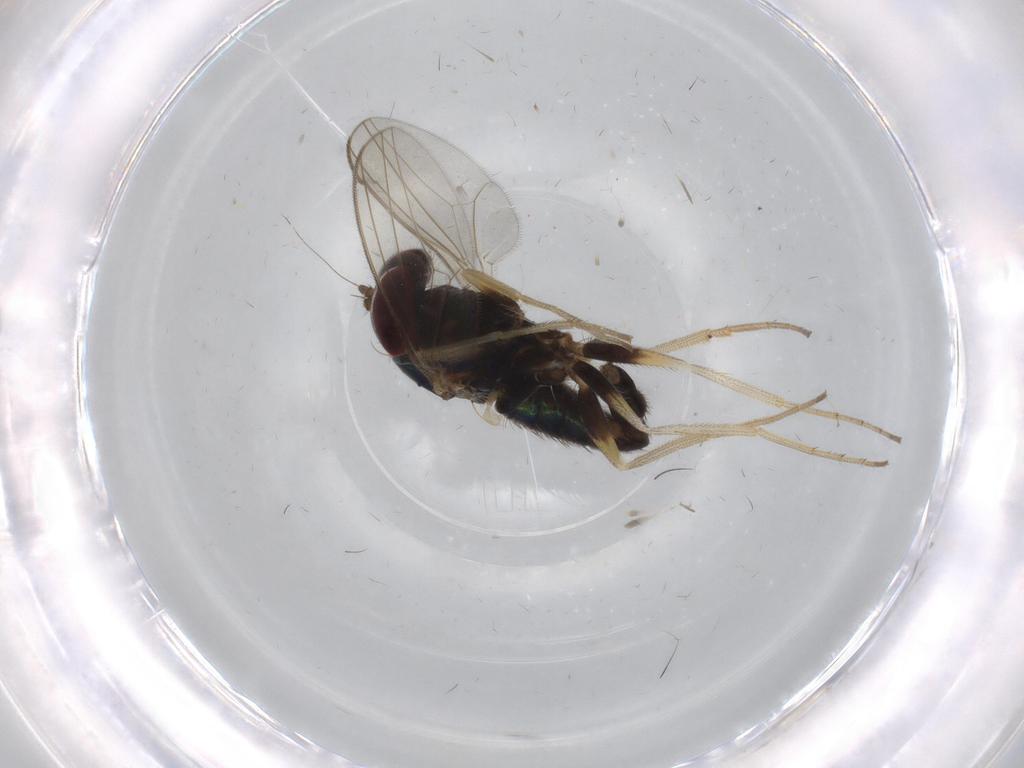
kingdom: Animalia
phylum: Arthropoda
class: Insecta
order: Diptera
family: Dolichopodidae
